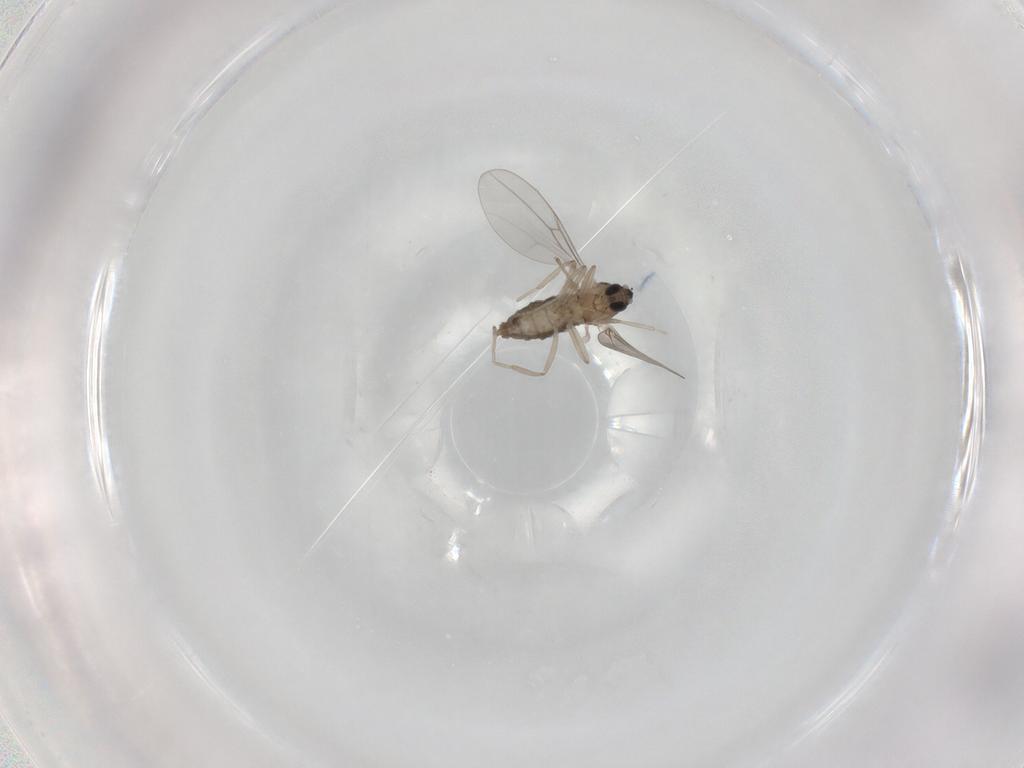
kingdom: Animalia
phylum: Arthropoda
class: Insecta
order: Diptera
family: Cecidomyiidae
